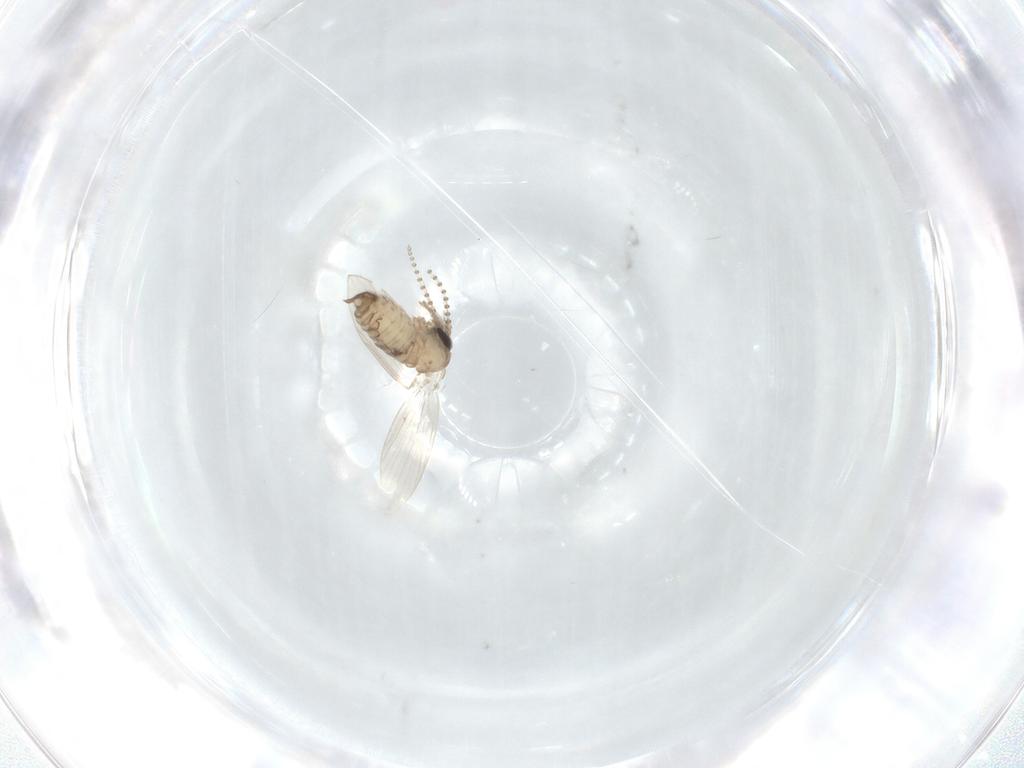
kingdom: Animalia
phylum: Arthropoda
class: Insecta
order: Diptera
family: Psychodidae
